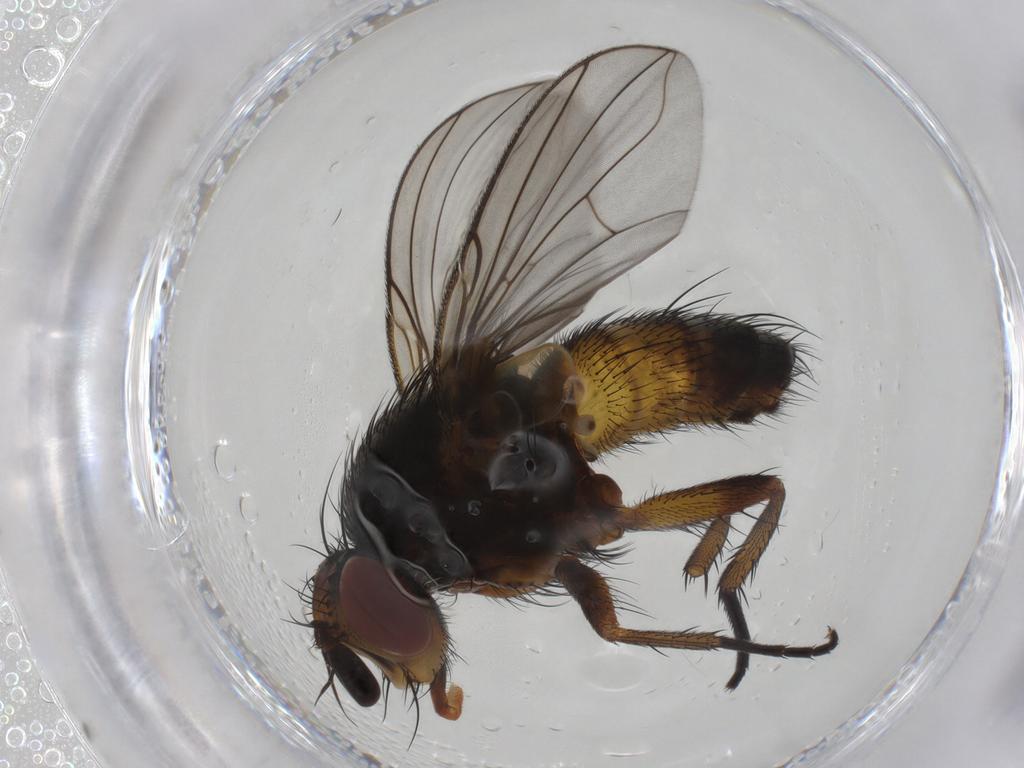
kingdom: Animalia
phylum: Arthropoda
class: Insecta
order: Diptera
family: Tachinidae
